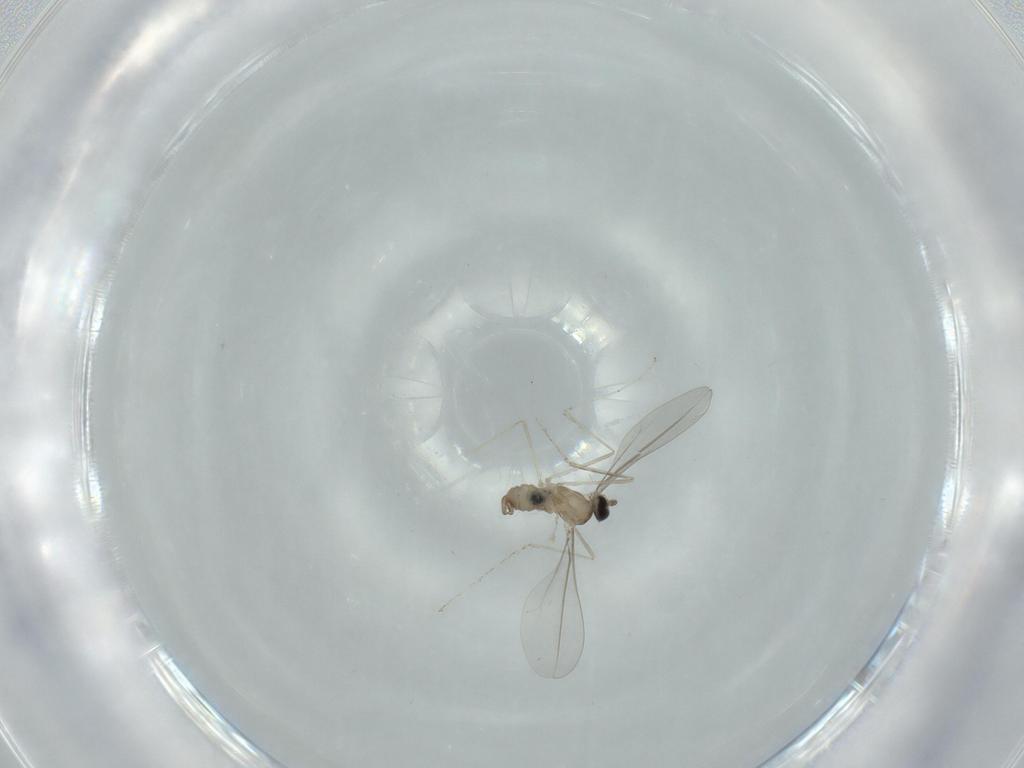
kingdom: Animalia
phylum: Arthropoda
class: Insecta
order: Diptera
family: Cecidomyiidae
